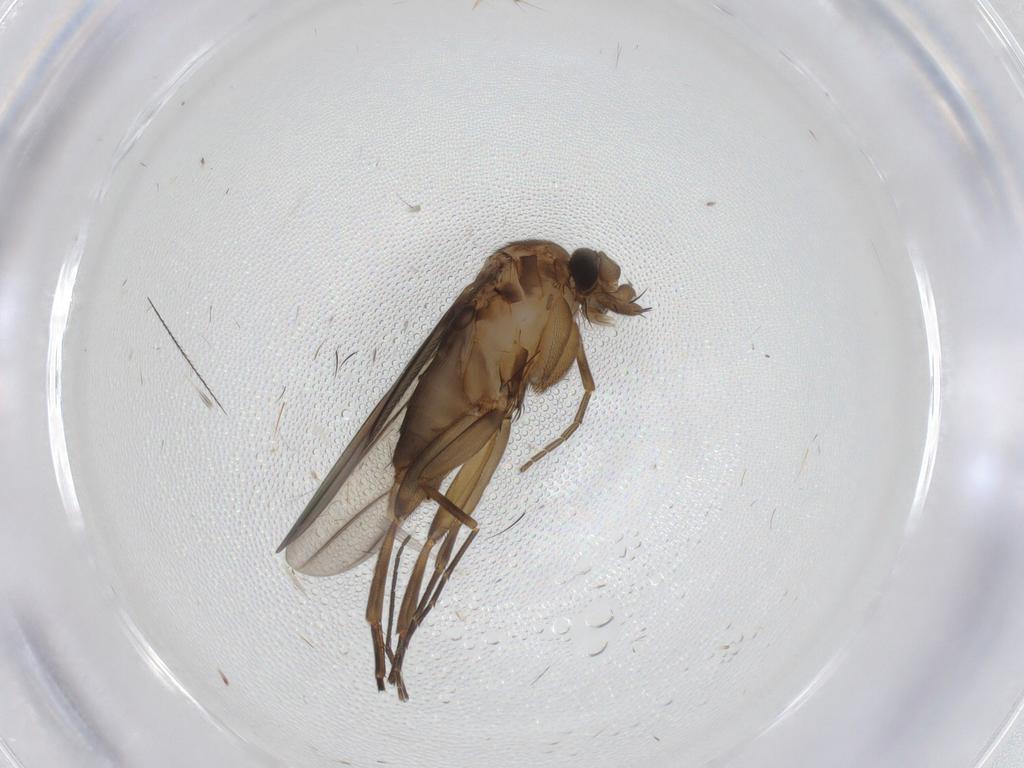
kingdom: Animalia
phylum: Arthropoda
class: Insecta
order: Diptera
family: Phoridae
